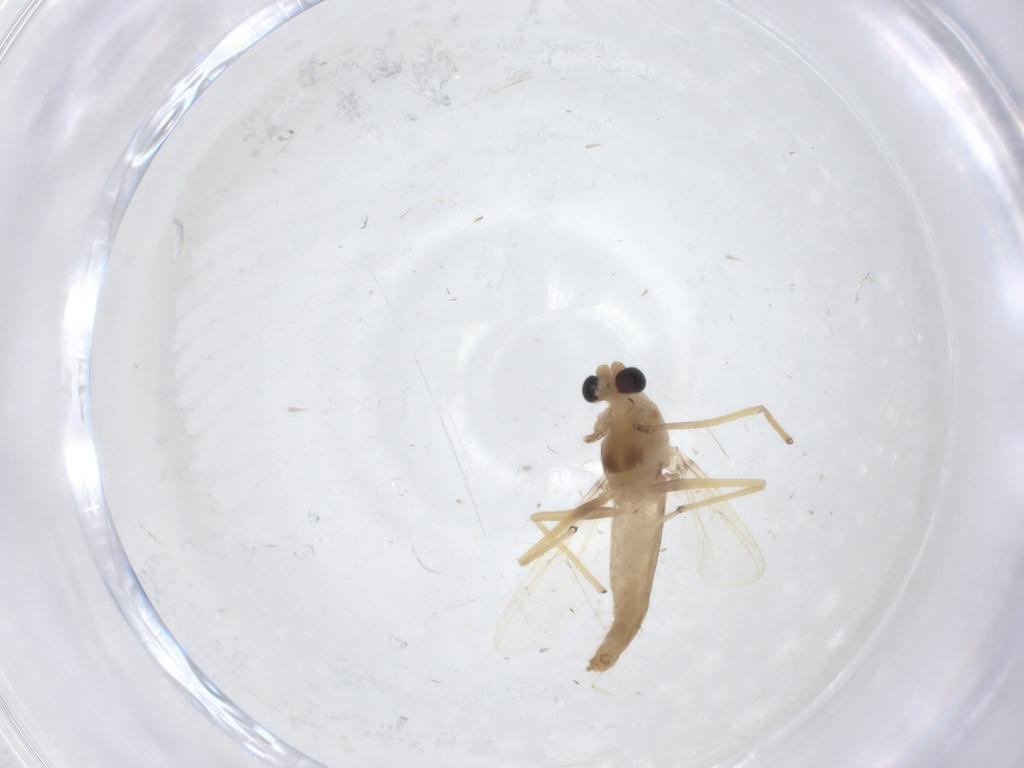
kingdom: Animalia
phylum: Arthropoda
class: Insecta
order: Diptera
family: Chironomidae
